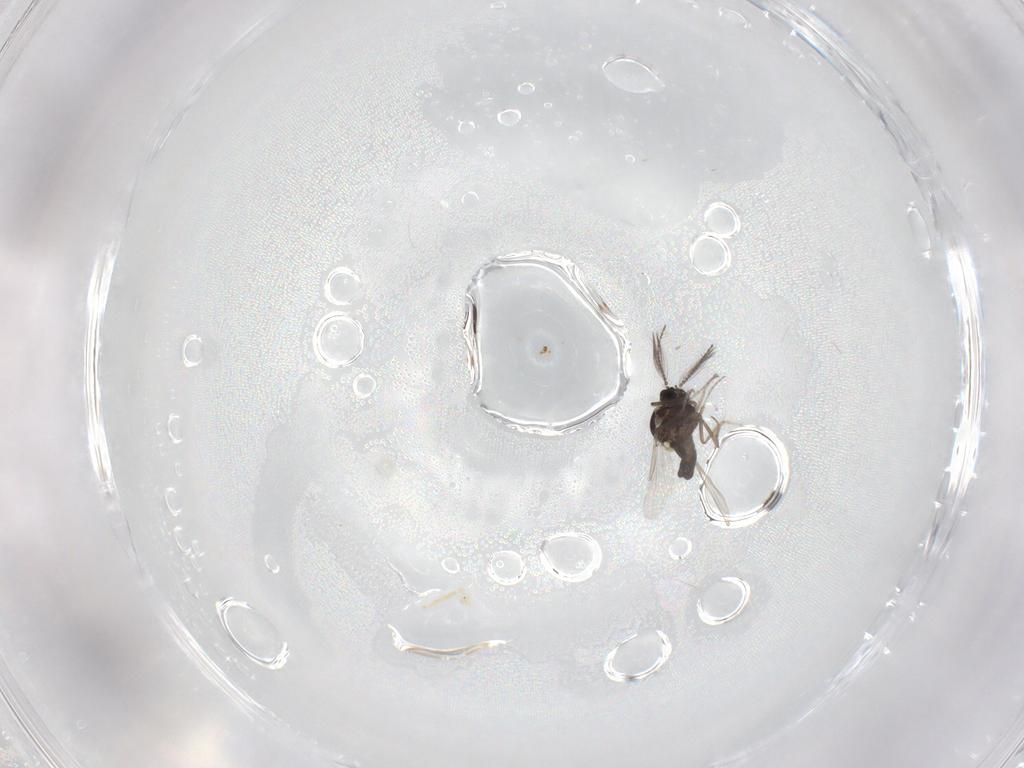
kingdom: Animalia
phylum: Arthropoda
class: Insecta
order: Diptera
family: Ceratopogonidae
